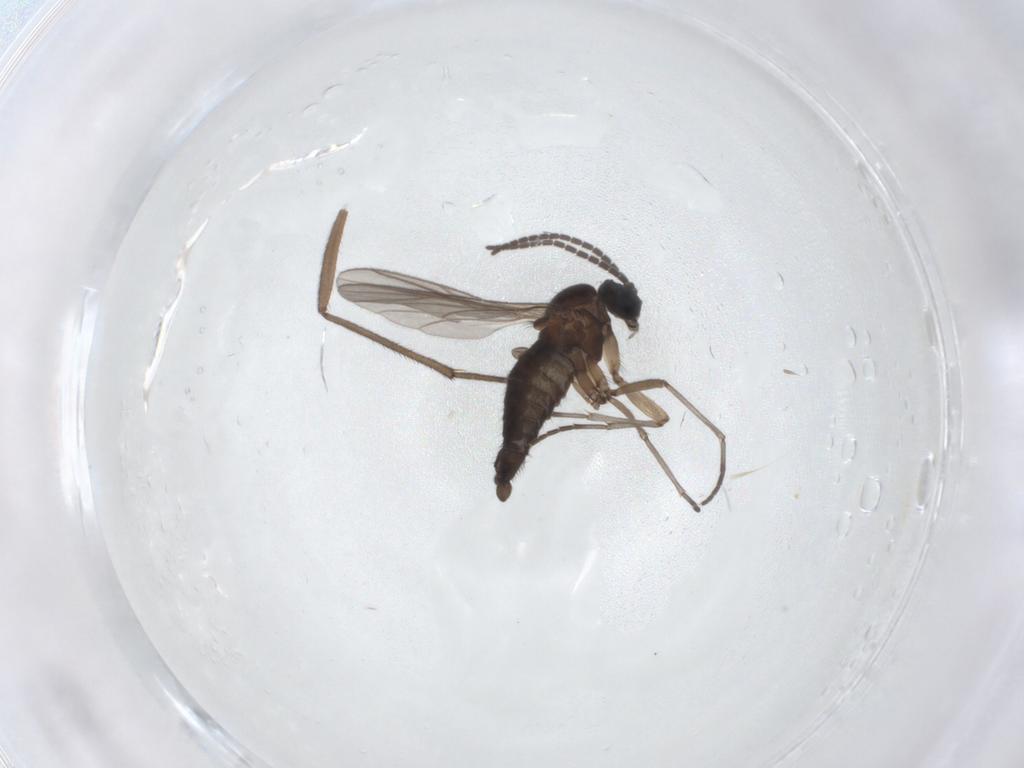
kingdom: Animalia
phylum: Arthropoda
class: Insecta
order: Diptera
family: Sciaridae
